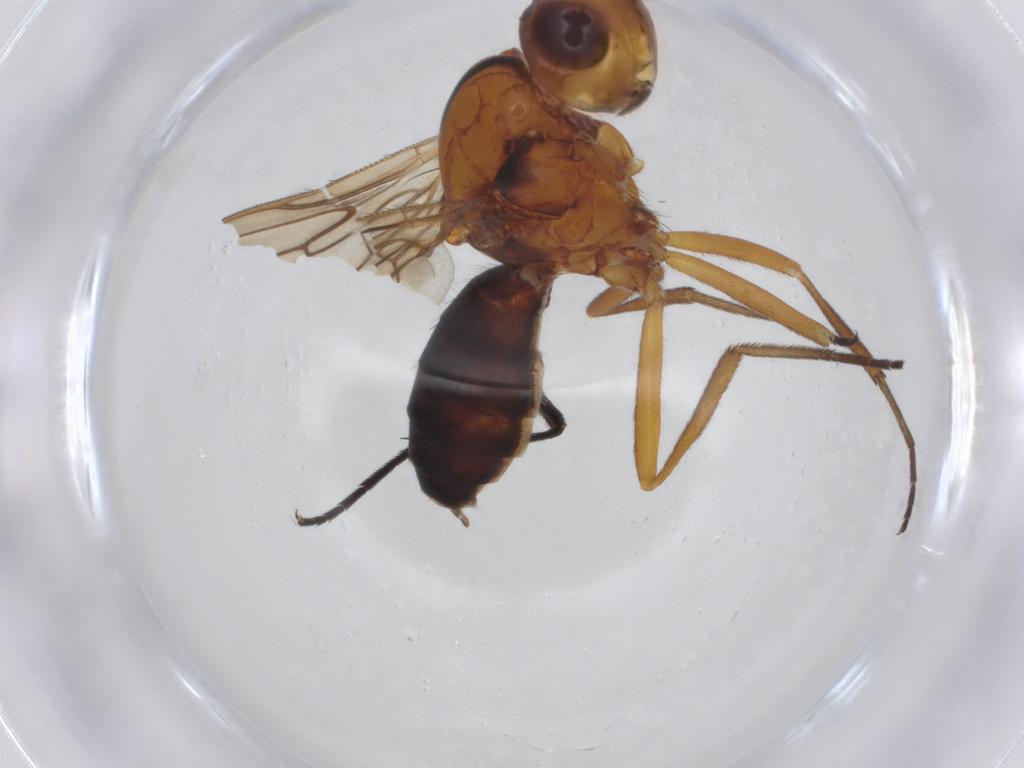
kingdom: Animalia
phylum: Arthropoda
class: Insecta
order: Diptera
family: Ceratopogonidae
